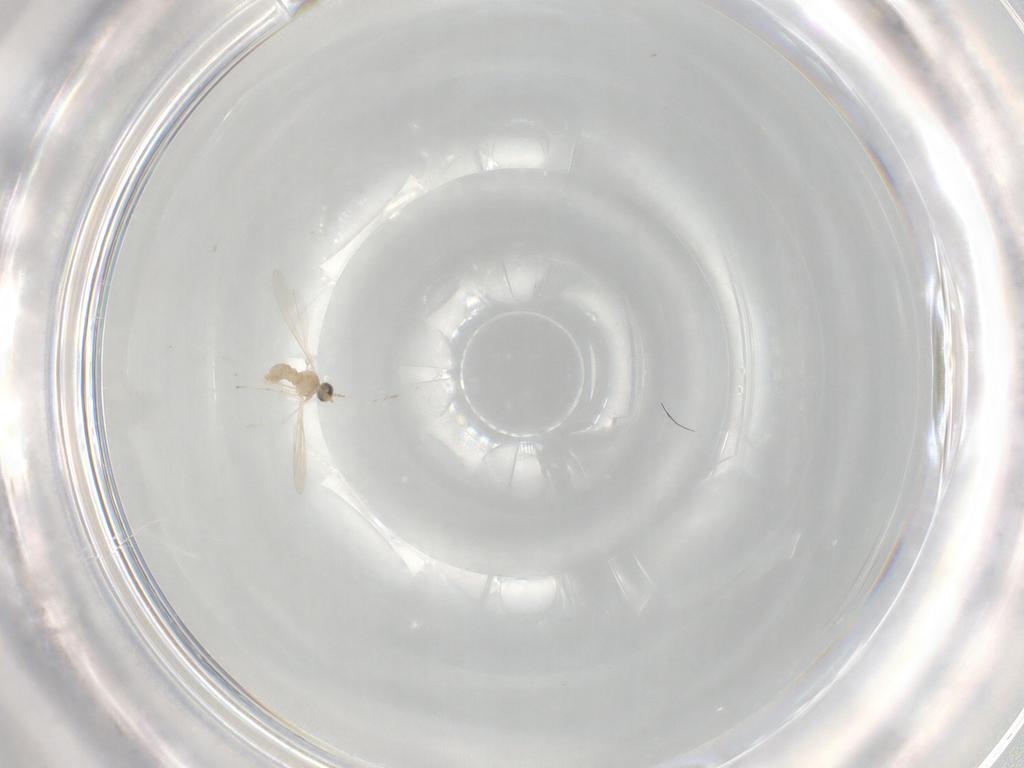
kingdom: Animalia
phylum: Arthropoda
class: Insecta
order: Diptera
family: Cecidomyiidae
